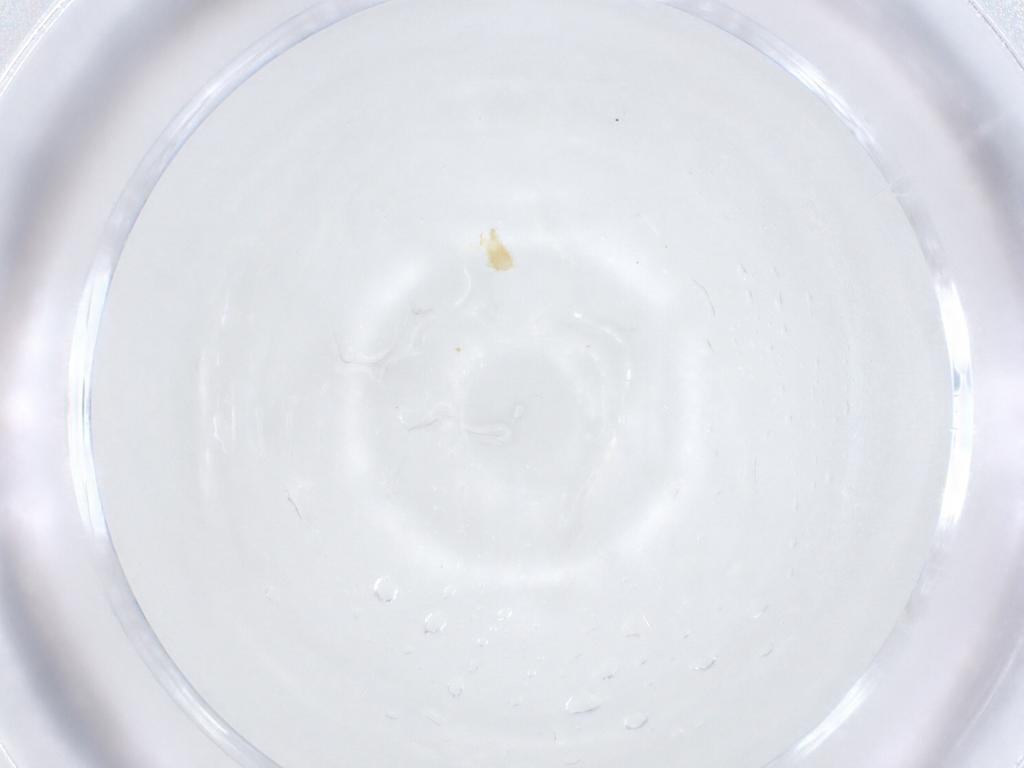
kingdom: Animalia
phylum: Arthropoda
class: Arachnida
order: Mesostigmata
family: Phytoseiidae
